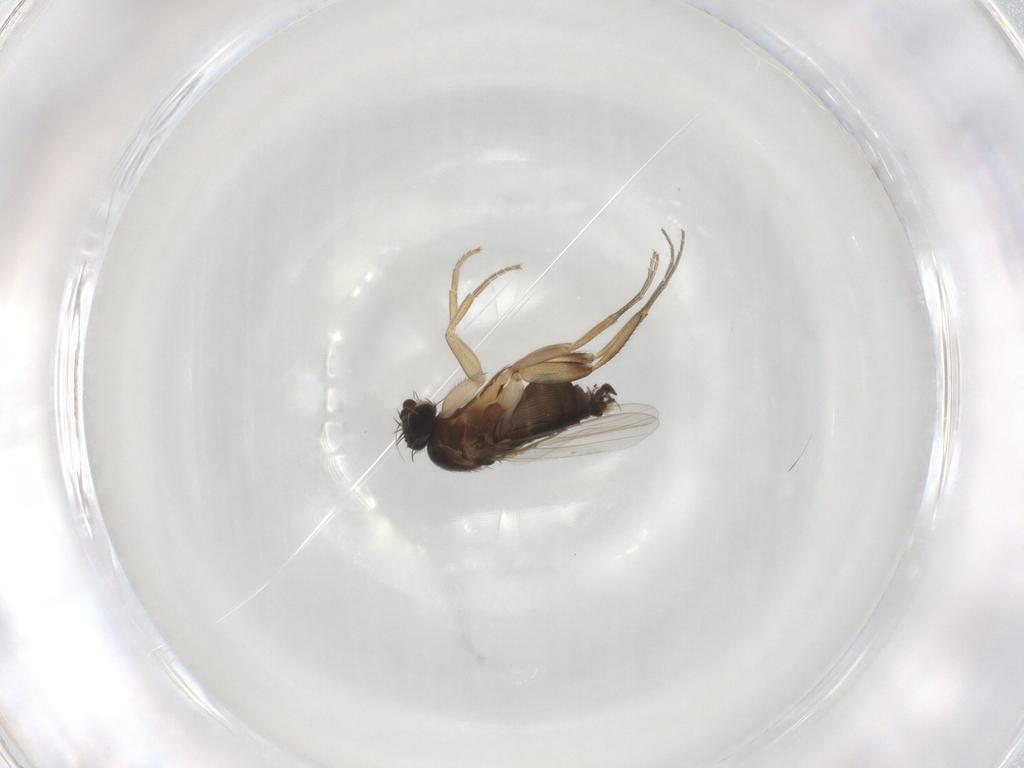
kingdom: Animalia
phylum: Arthropoda
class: Insecta
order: Diptera
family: Phoridae
